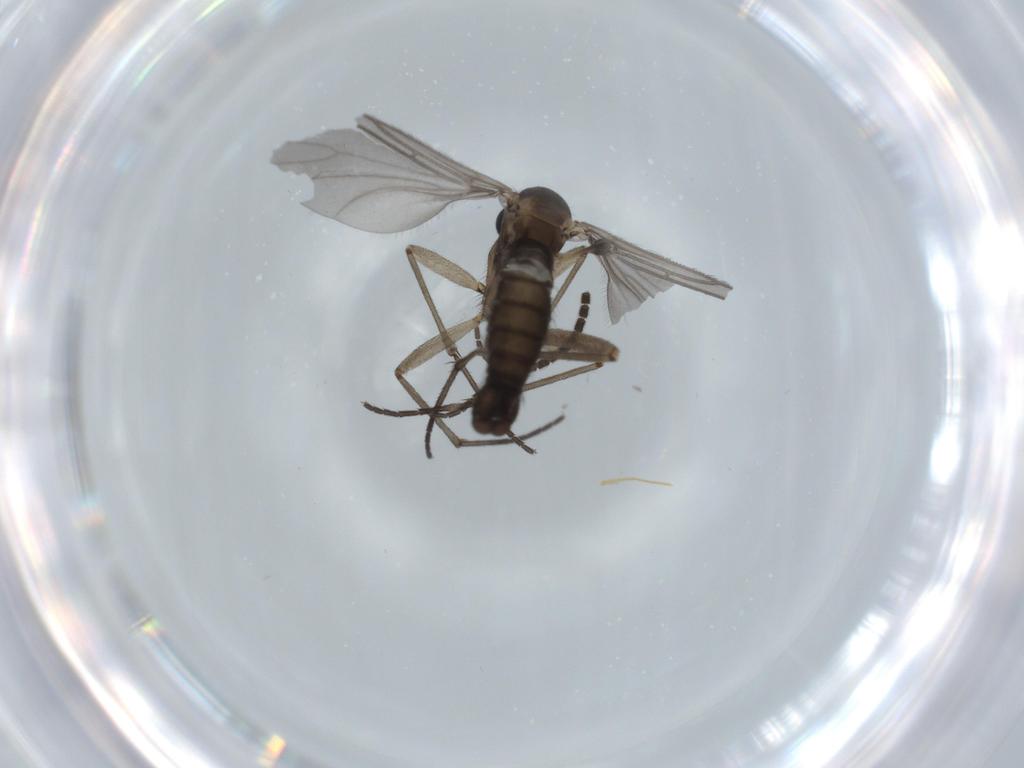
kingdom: Animalia
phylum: Arthropoda
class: Insecta
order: Diptera
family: Sciaridae
